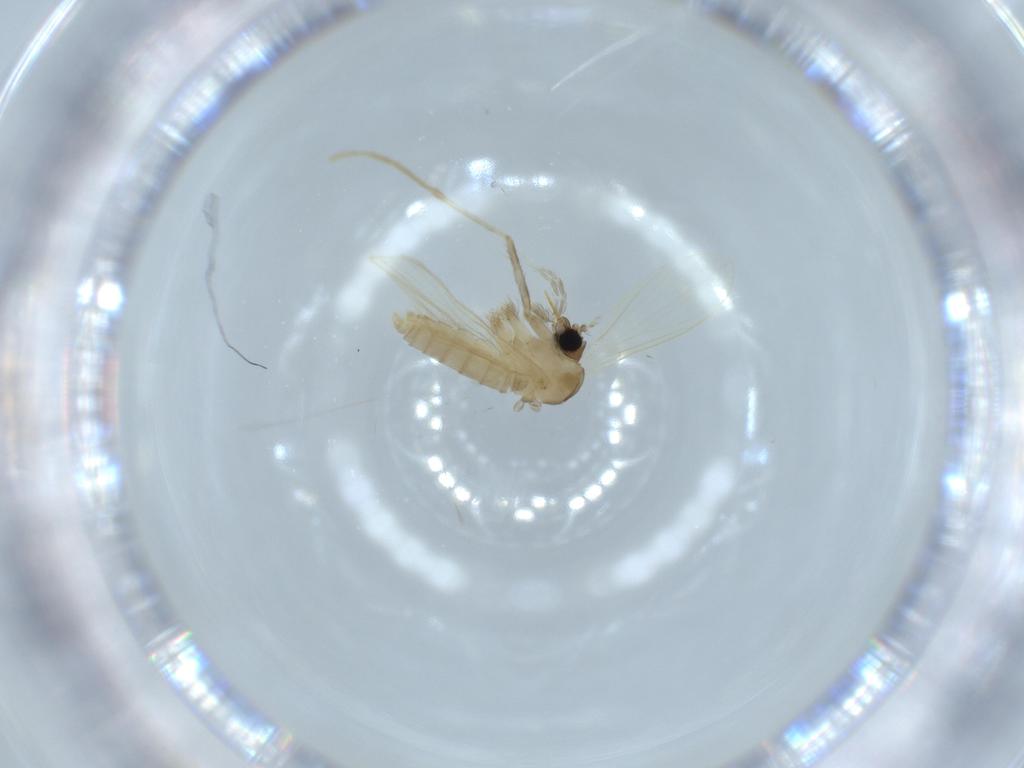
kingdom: Animalia
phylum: Arthropoda
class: Insecta
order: Diptera
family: Psychodidae
